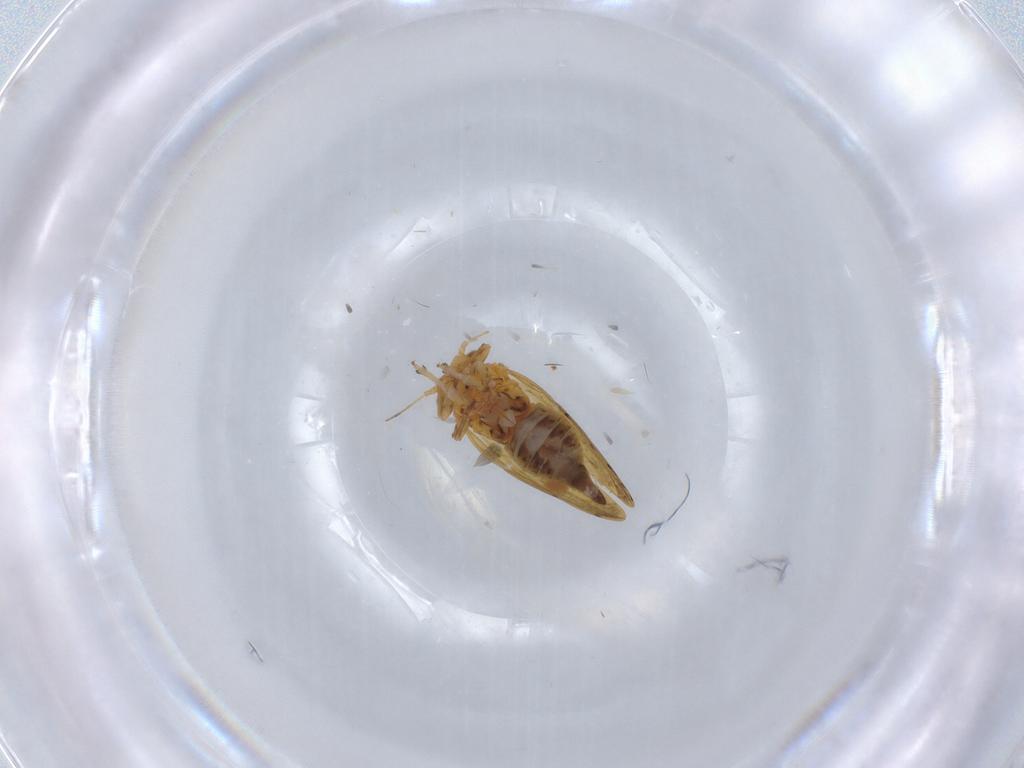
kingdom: Animalia
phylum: Arthropoda
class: Insecta
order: Hemiptera
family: Liviidae
